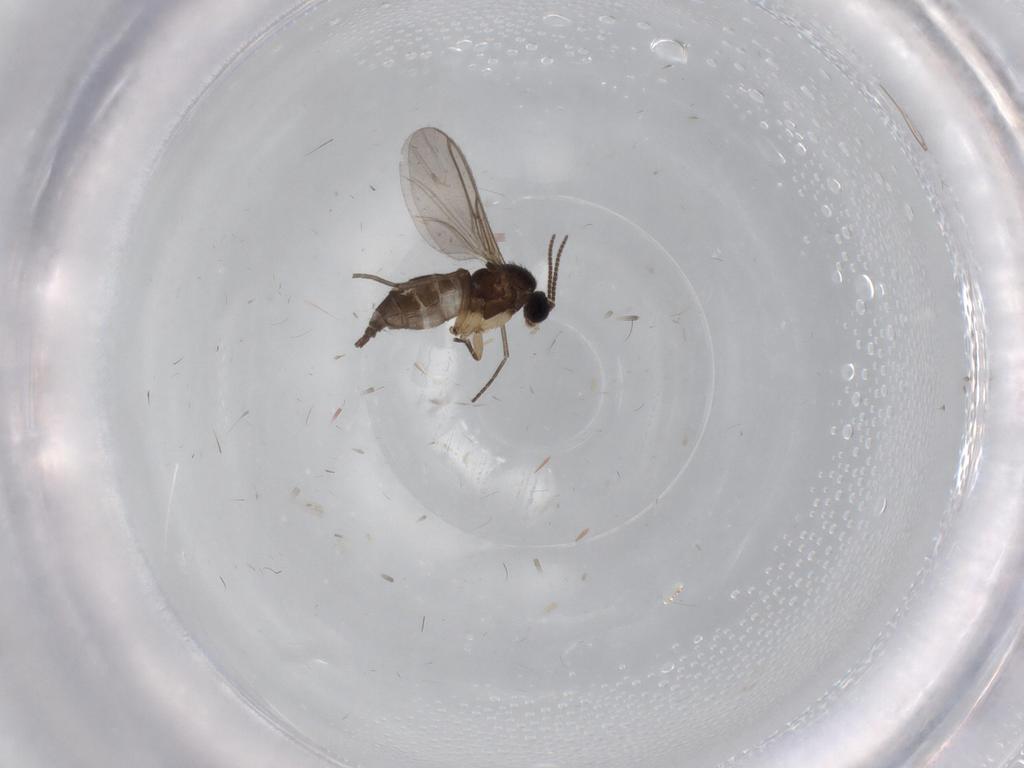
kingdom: Animalia
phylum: Arthropoda
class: Insecta
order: Diptera
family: Sciaridae
